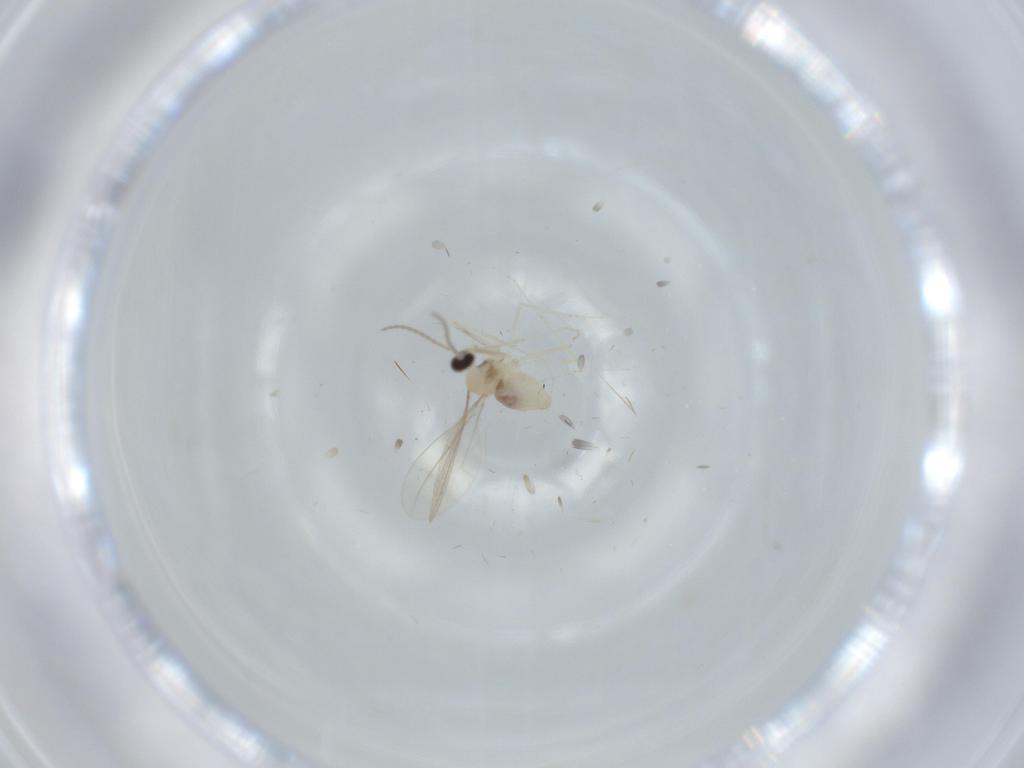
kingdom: Animalia
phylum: Arthropoda
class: Insecta
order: Diptera
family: Cecidomyiidae
